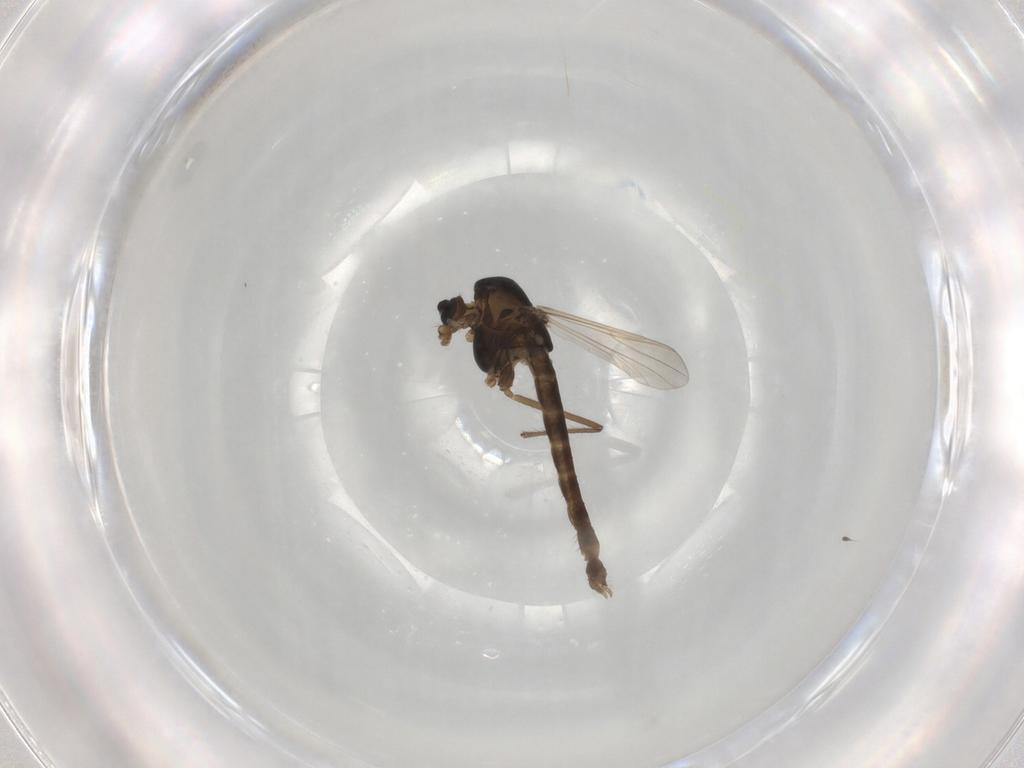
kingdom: Animalia
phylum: Arthropoda
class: Insecta
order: Diptera
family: Chironomidae
